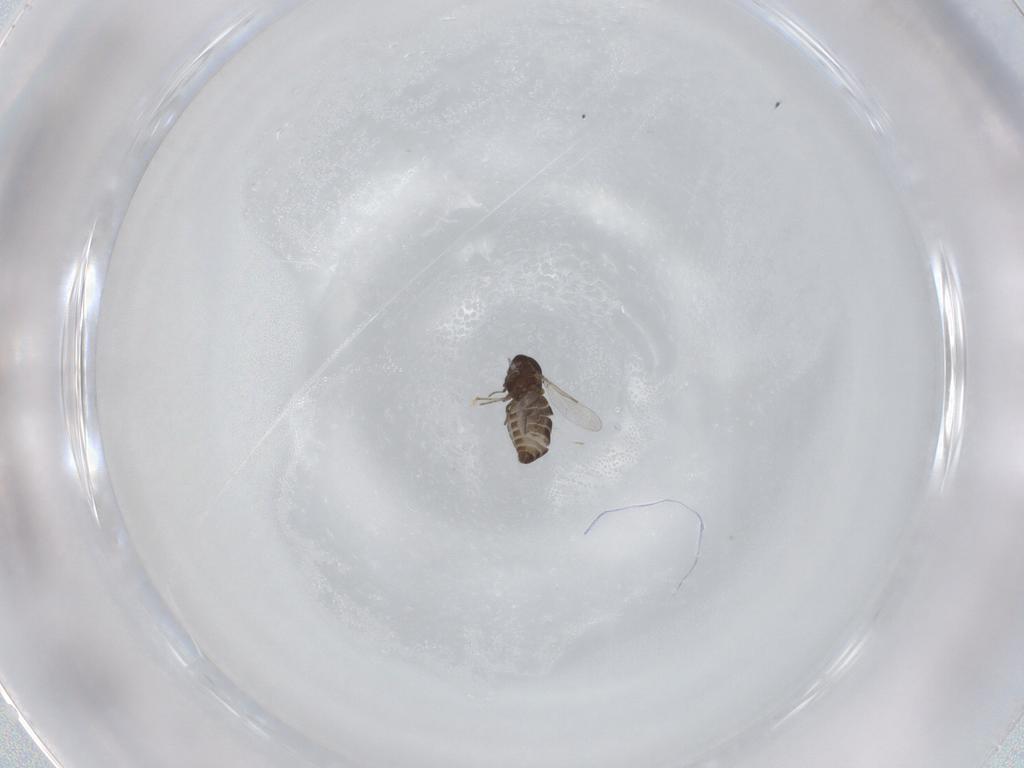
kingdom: Animalia
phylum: Arthropoda
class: Insecta
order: Diptera
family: Ceratopogonidae
